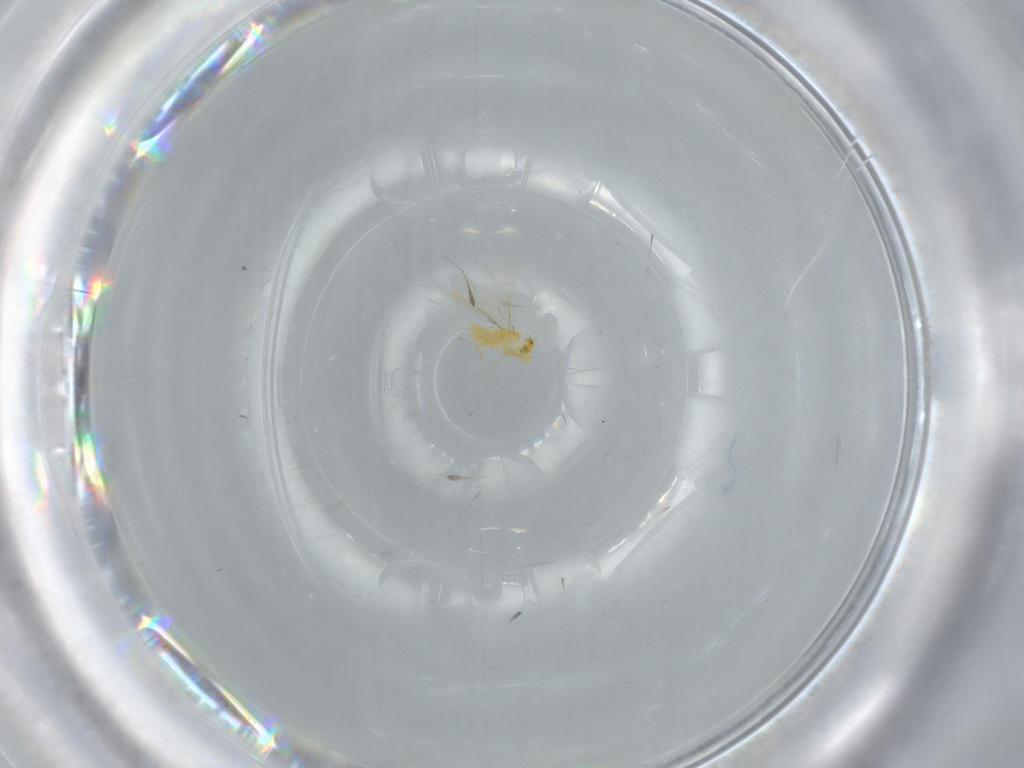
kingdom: Animalia
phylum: Arthropoda
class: Insecta
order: Hymenoptera
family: Aphelinidae
